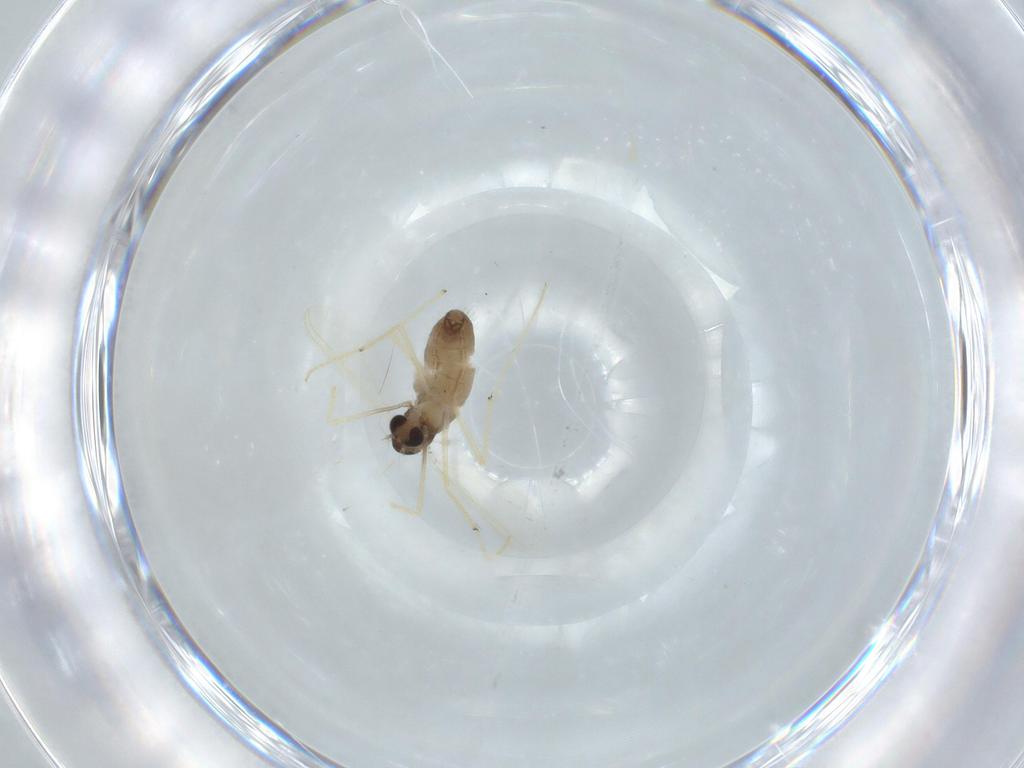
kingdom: Animalia
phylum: Arthropoda
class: Insecta
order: Diptera
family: Chironomidae
